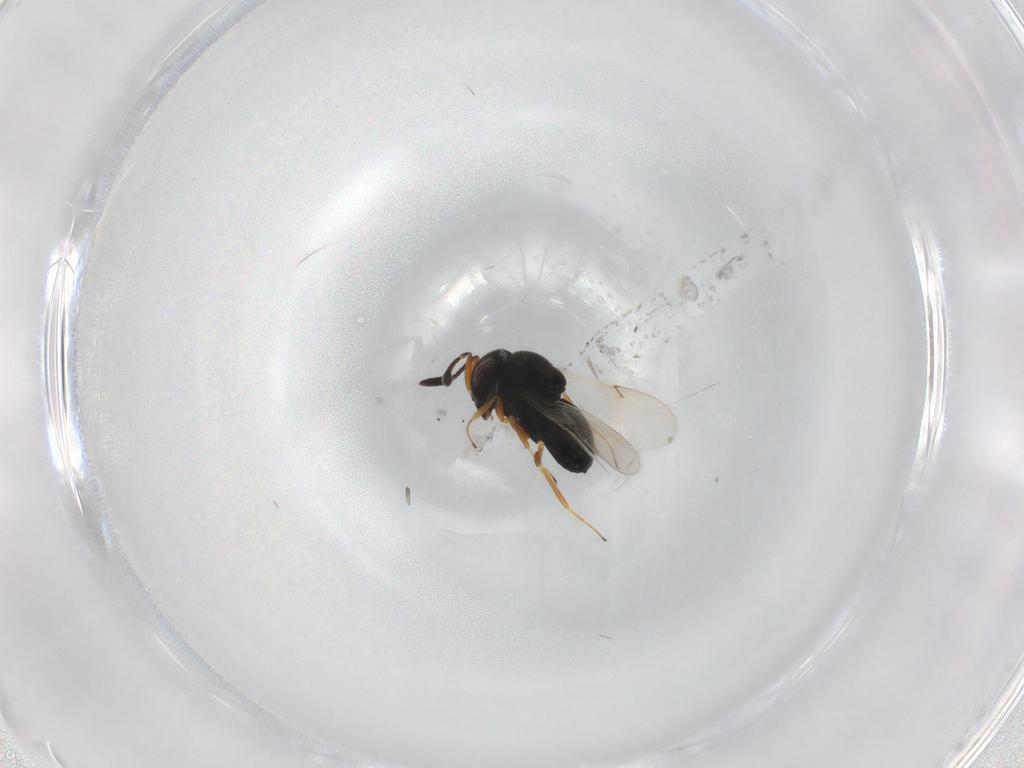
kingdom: Animalia
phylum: Arthropoda
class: Insecta
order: Hymenoptera
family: Scelionidae
